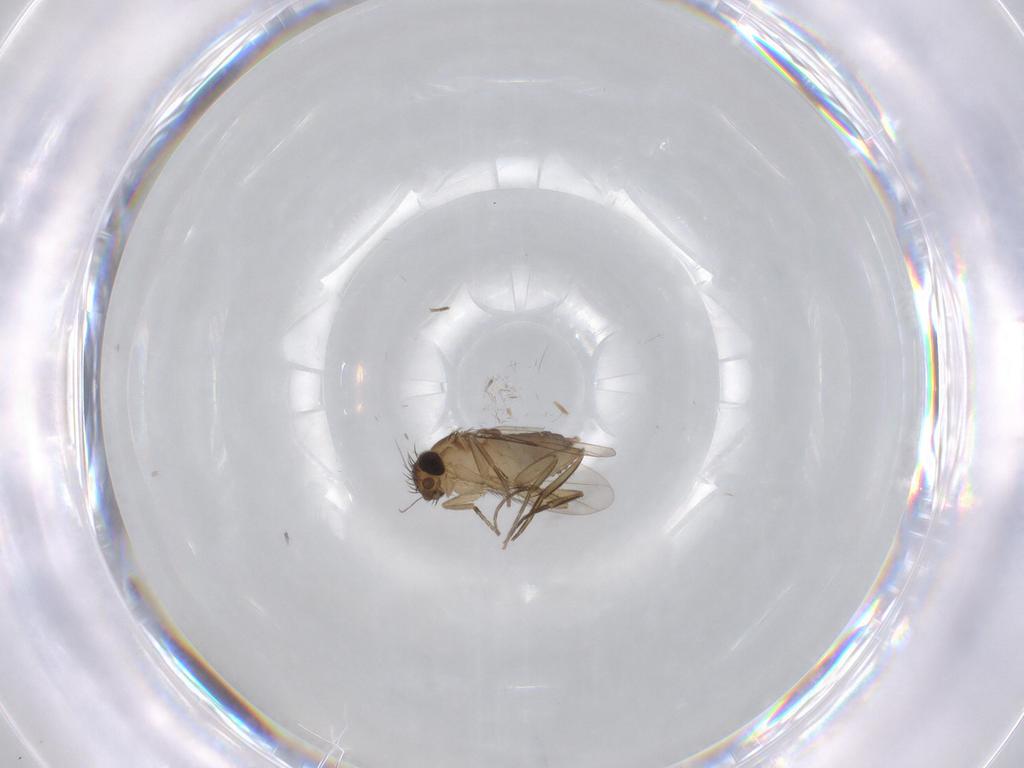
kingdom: Animalia
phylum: Arthropoda
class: Insecta
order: Diptera
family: Phoridae
